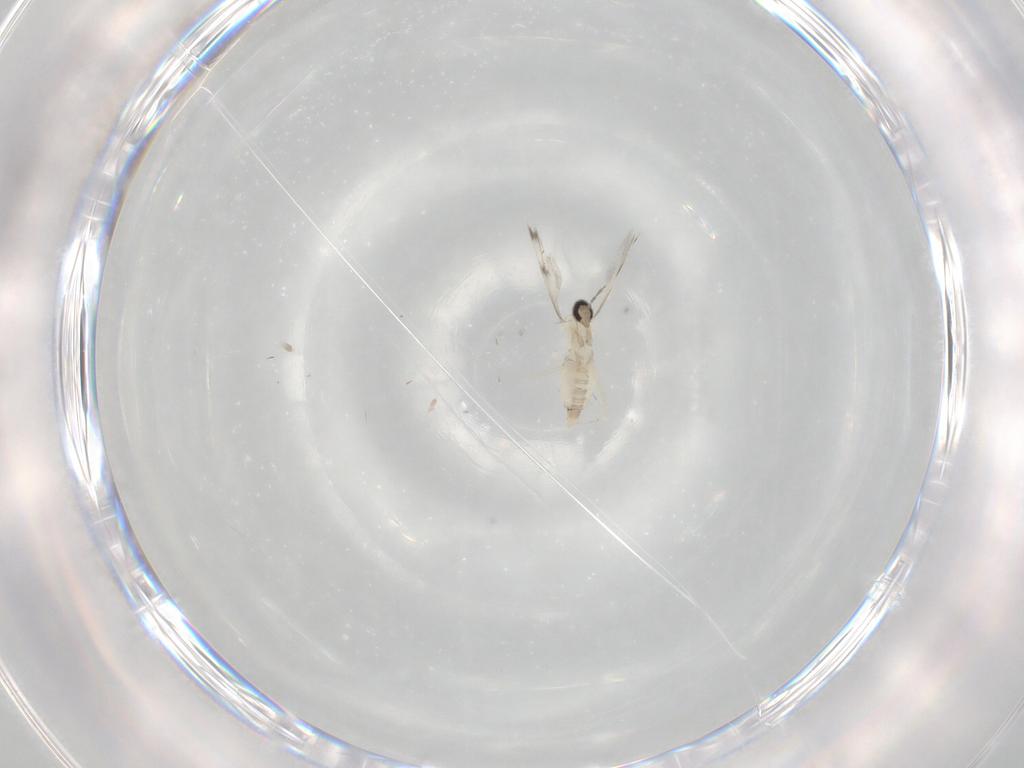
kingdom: Animalia
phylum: Arthropoda
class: Insecta
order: Diptera
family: Cecidomyiidae
